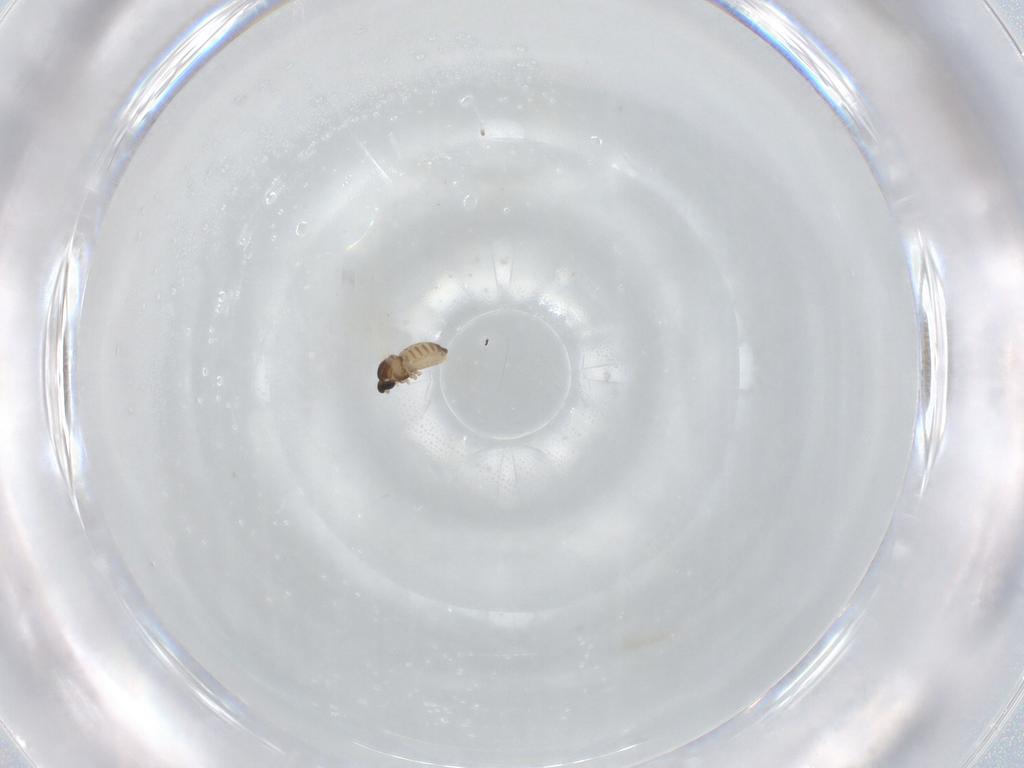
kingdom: Animalia
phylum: Arthropoda
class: Insecta
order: Diptera
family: Cecidomyiidae
